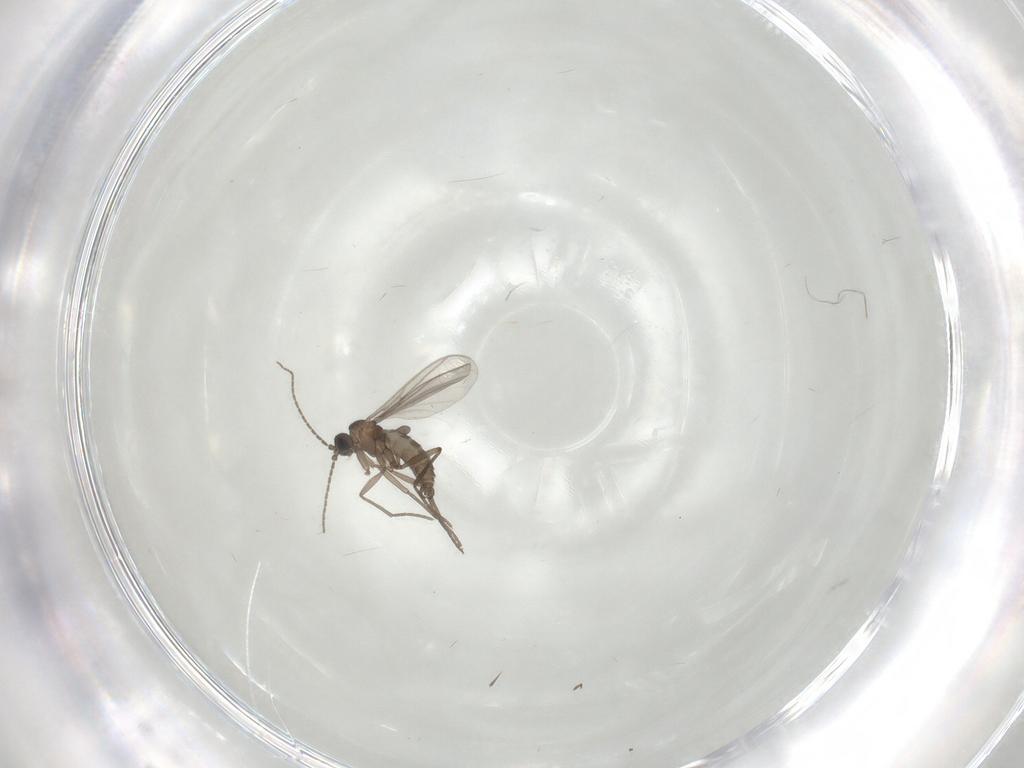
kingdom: Animalia
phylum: Arthropoda
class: Insecta
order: Diptera
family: Sciaridae
